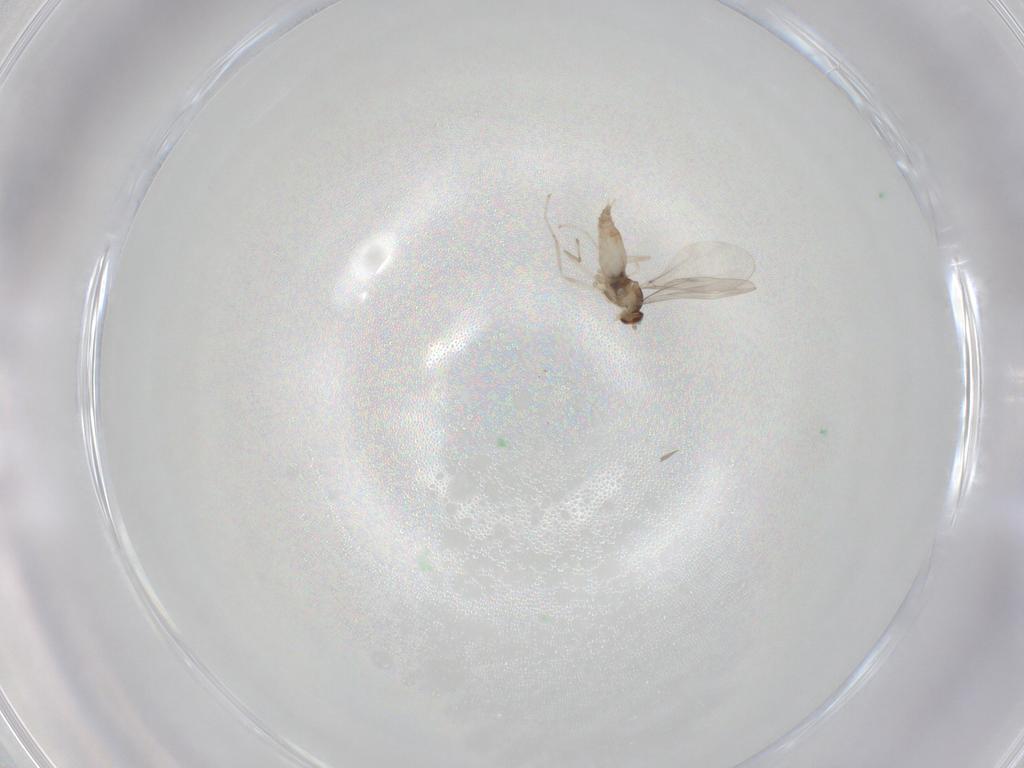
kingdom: Animalia
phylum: Arthropoda
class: Insecta
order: Diptera
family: Cecidomyiidae
